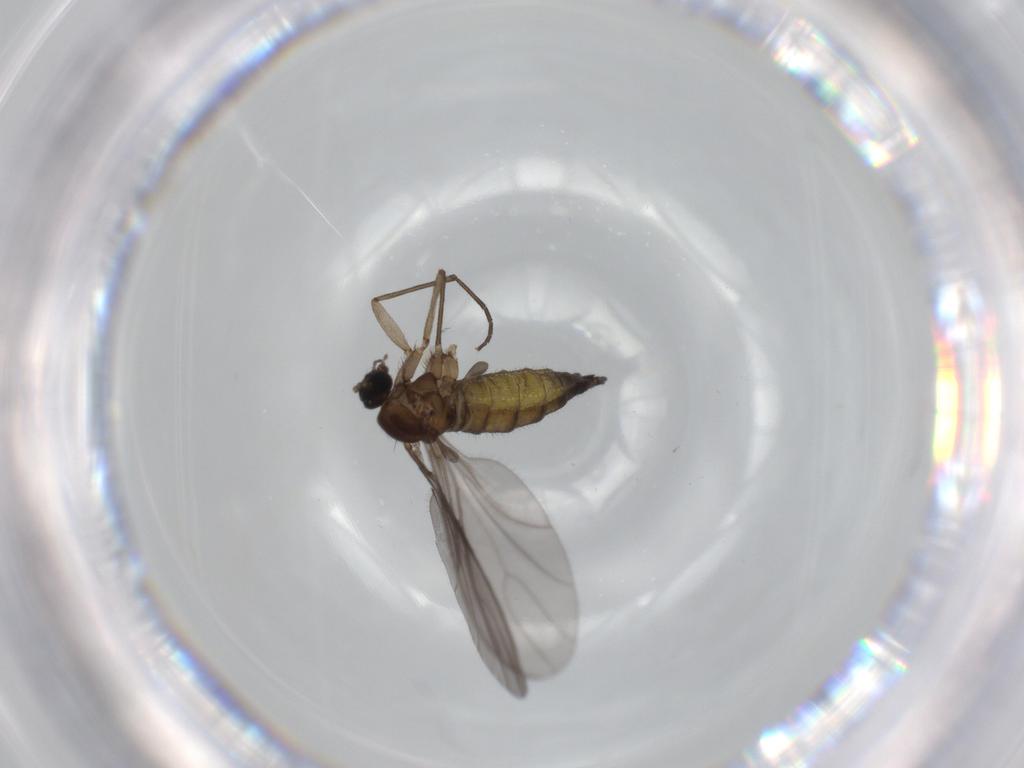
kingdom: Animalia
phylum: Arthropoda
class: Insecta
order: Diptera
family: Sciaridae
